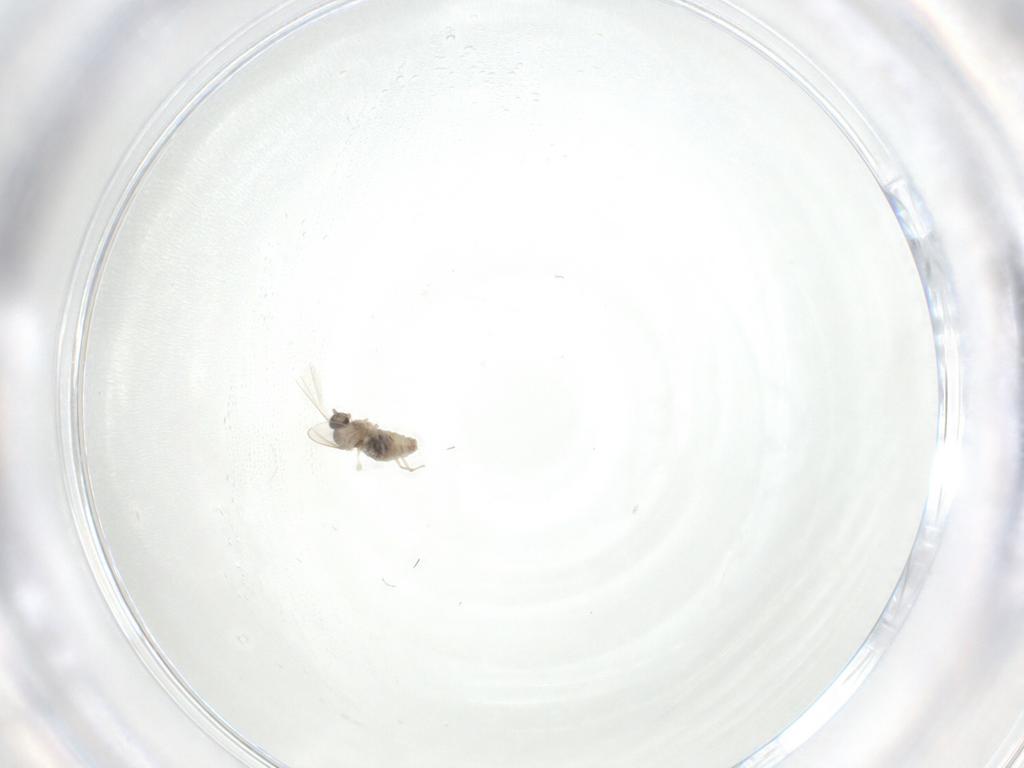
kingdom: Animalia
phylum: Arthropoda
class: Insecta
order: Diptera
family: Cecidomyiidae
